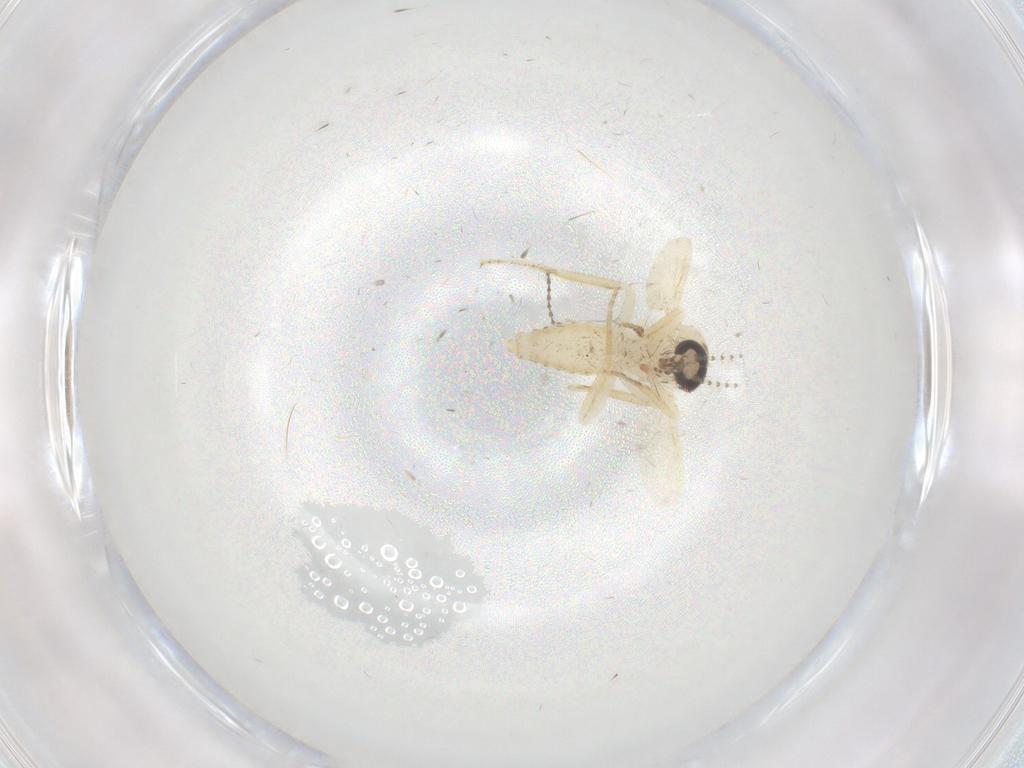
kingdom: Animalia
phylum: Arthropoda
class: Insecta
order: Diptera
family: Ceratopogonidae
